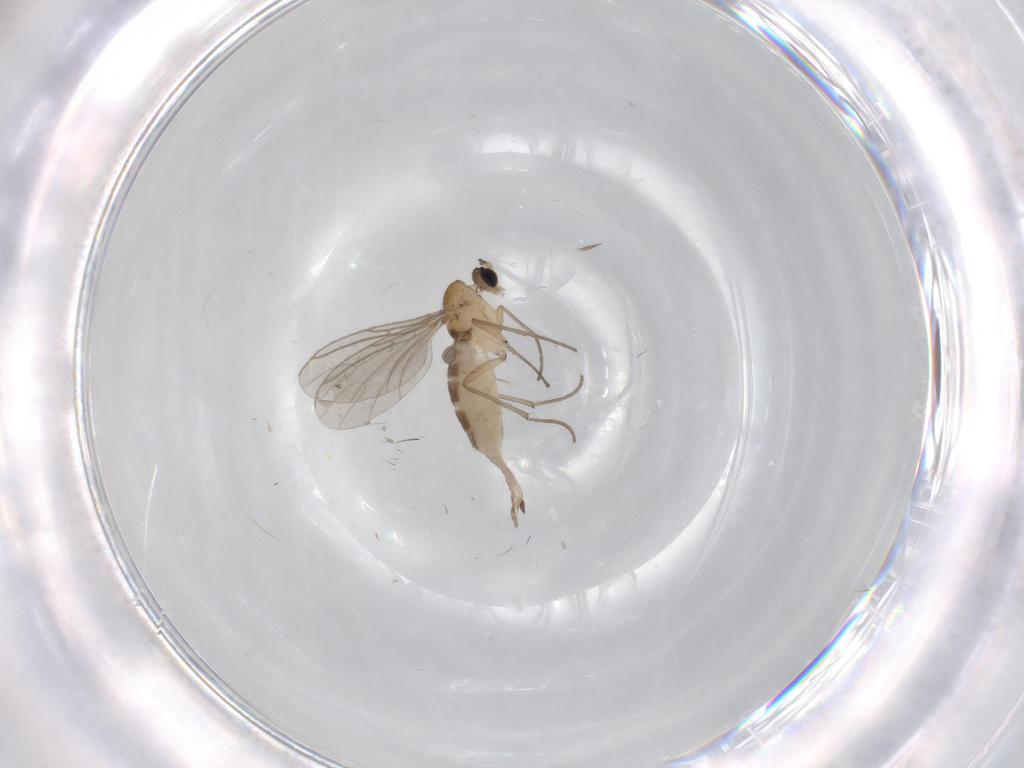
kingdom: Animalia
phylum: Arthropoda
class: Insecta
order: Diptera
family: Sciaridae
